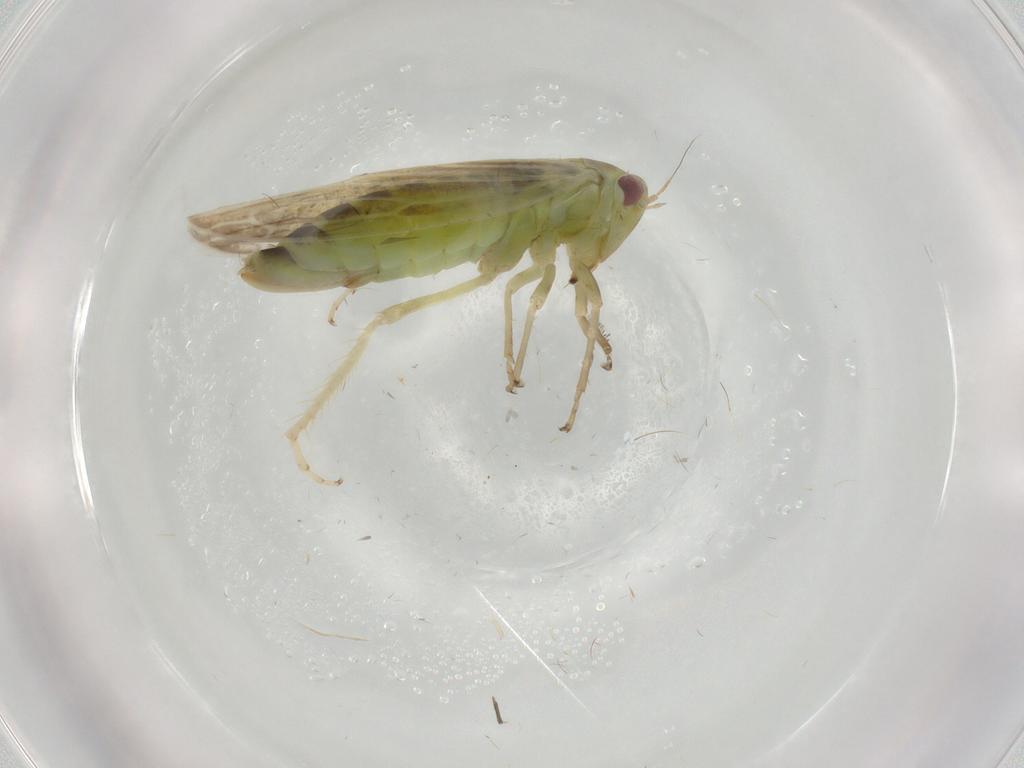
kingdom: Animalia
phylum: Arthropoda
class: Insecta
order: Hemiptera
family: Cicadellidae
